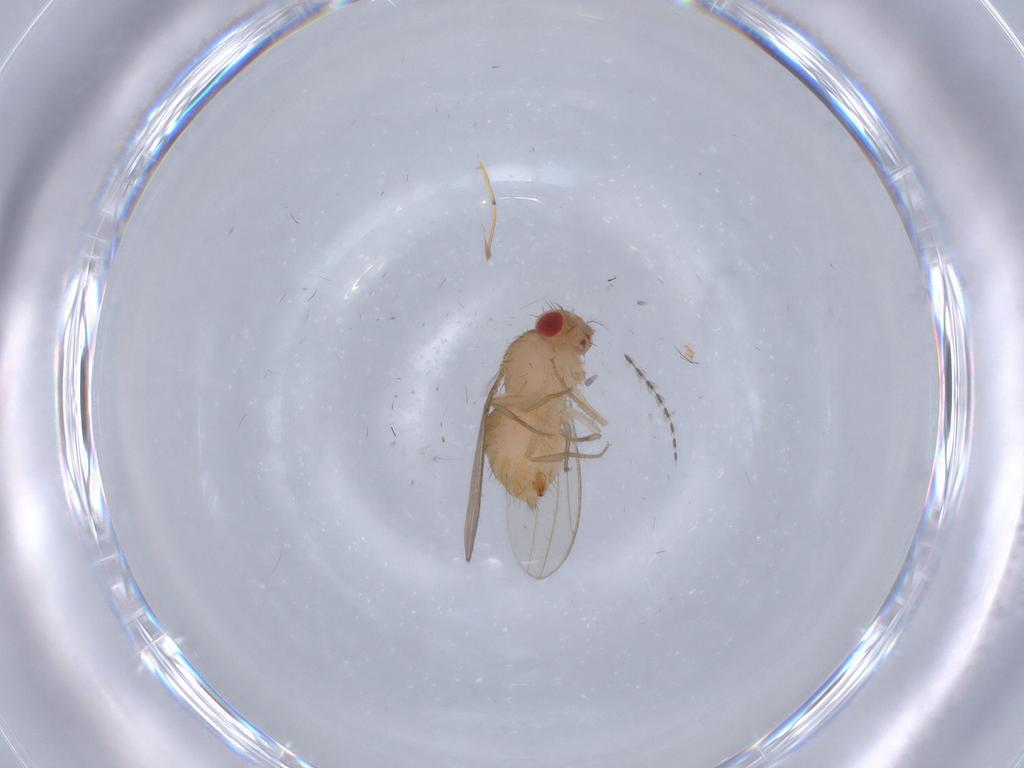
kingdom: Animalia
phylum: Arthropoda
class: Insecta
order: Diptera
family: Drosophilidae
